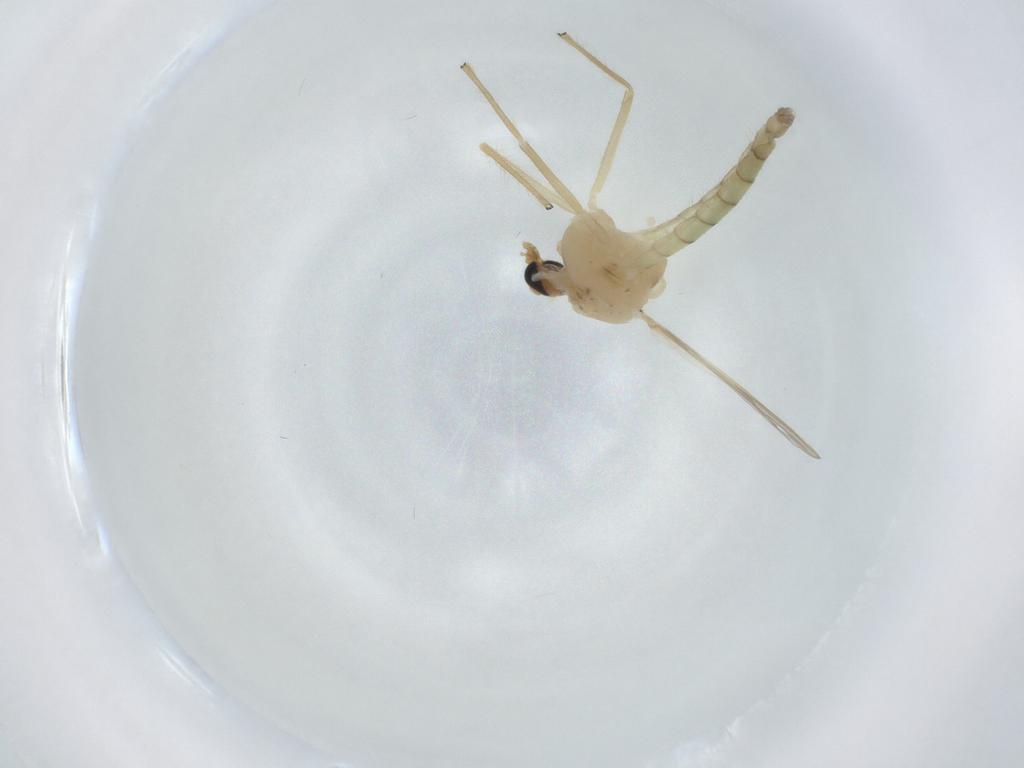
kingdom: Animalia
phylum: Arthropoda
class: Insecta
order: Diptera
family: Chironomidae
